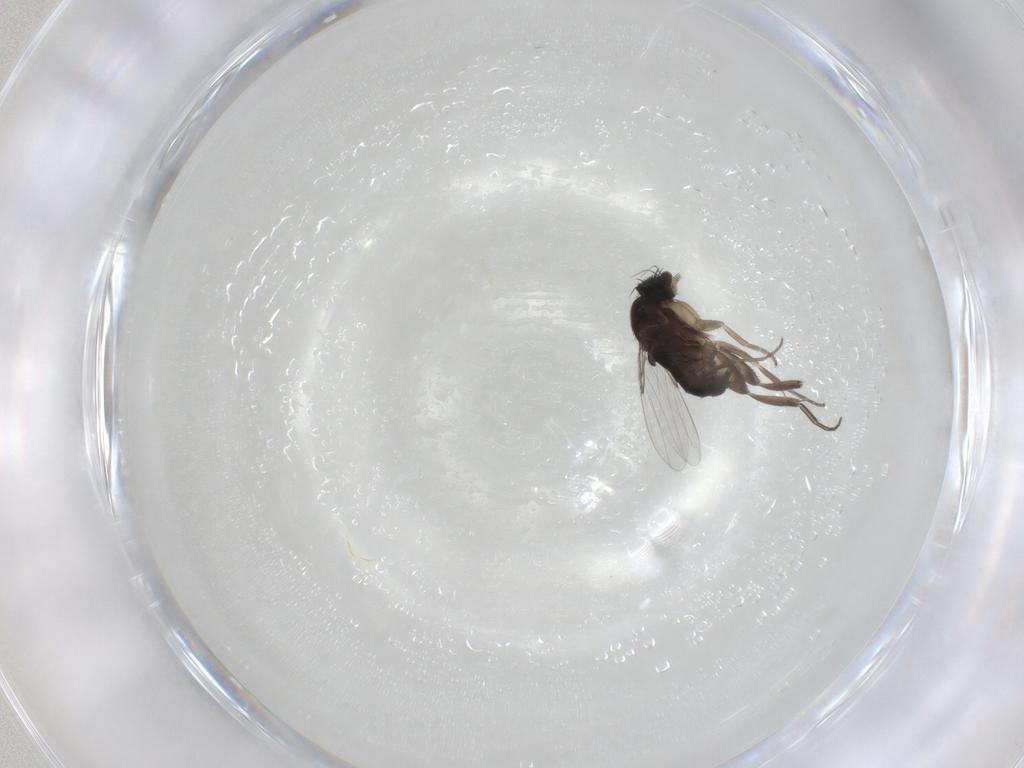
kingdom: Animalia
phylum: Arthropoda
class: Insecta
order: Diptera
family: Phoridae
